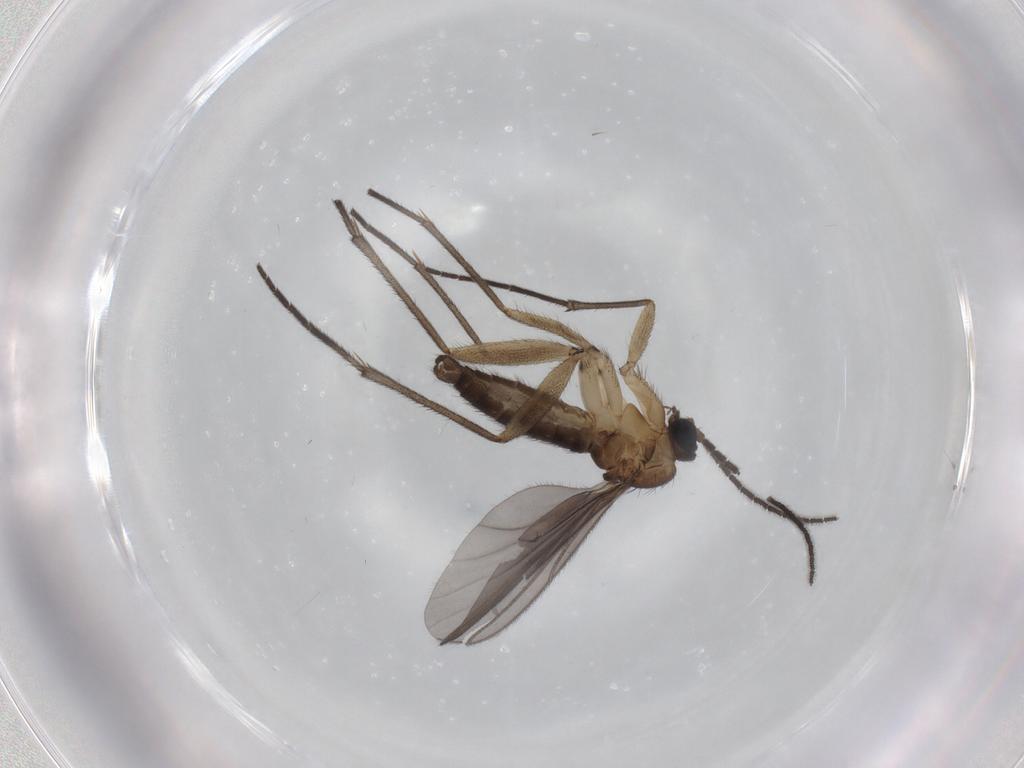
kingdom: Animalia
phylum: Arthropoda
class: Insecta
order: Diptera
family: Sciaridae
